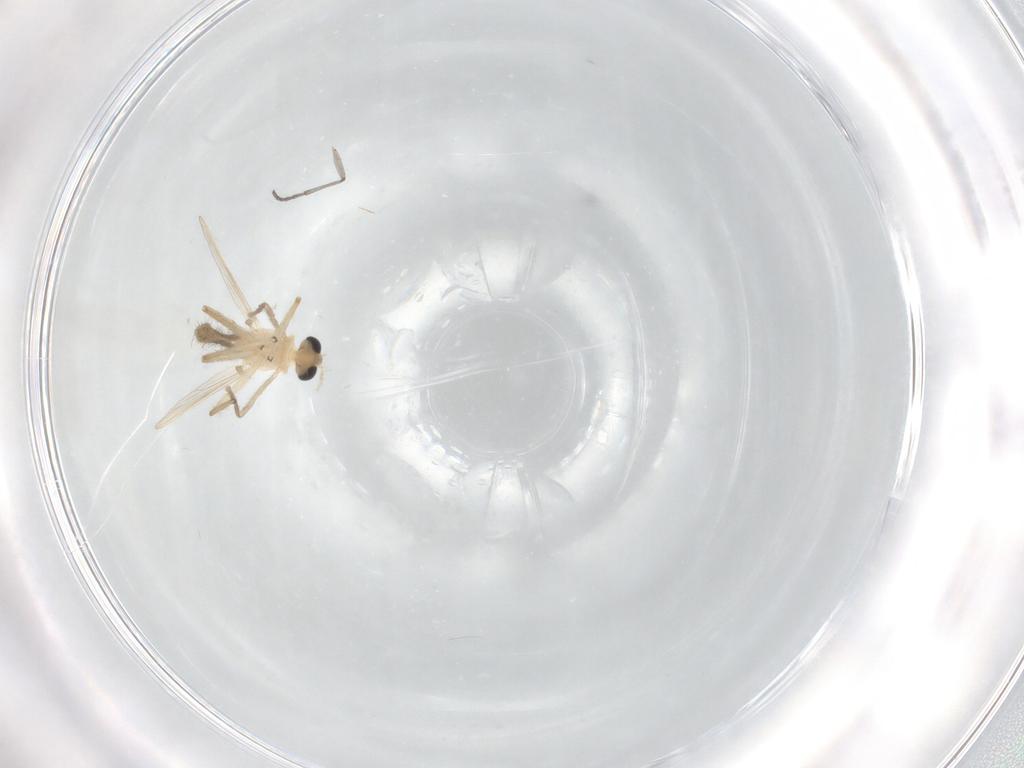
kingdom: Animalia
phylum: Arthropoda
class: Insecta
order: Diptera
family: Chironomidae
